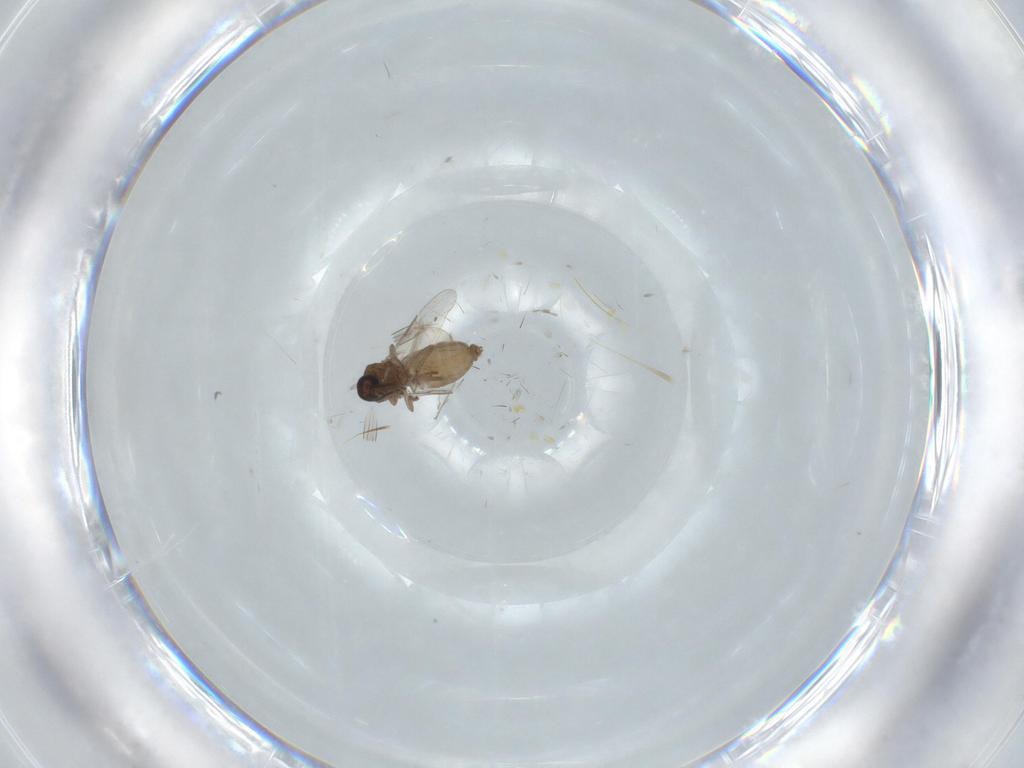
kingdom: Animalia
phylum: Arthropoda
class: Insecta
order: Diptera
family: Ceratopogonidae
